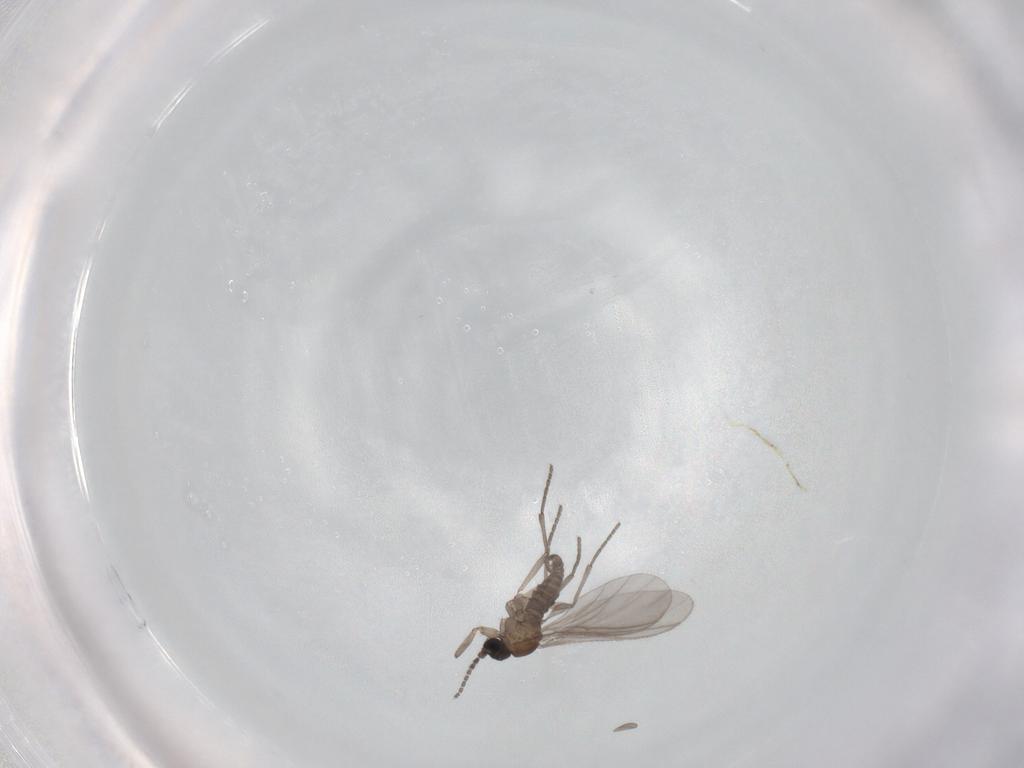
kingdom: Animalia
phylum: Arthropoda
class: Insecta
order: Diptera
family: Sciaridae
